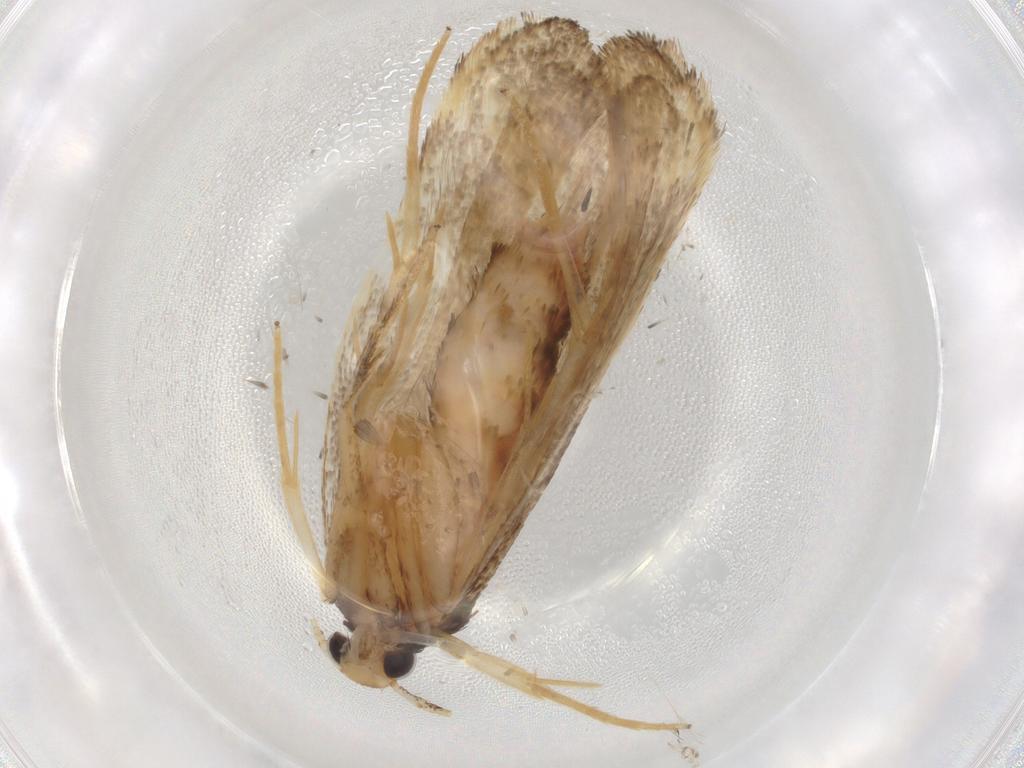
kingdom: Animalia
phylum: Arthropoda
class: Insecta
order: Lepidoptera
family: Lecithoceridae
